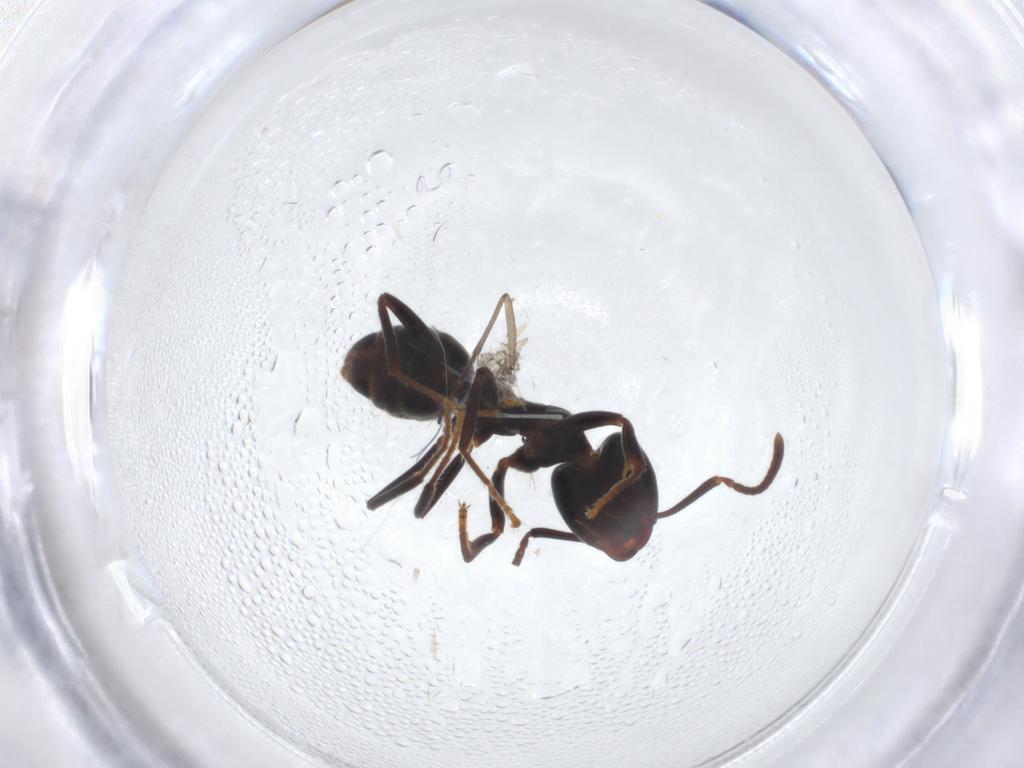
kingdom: Animalia
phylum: Arthropoda
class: Insecta
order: Hymenoptera
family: Formicidae
